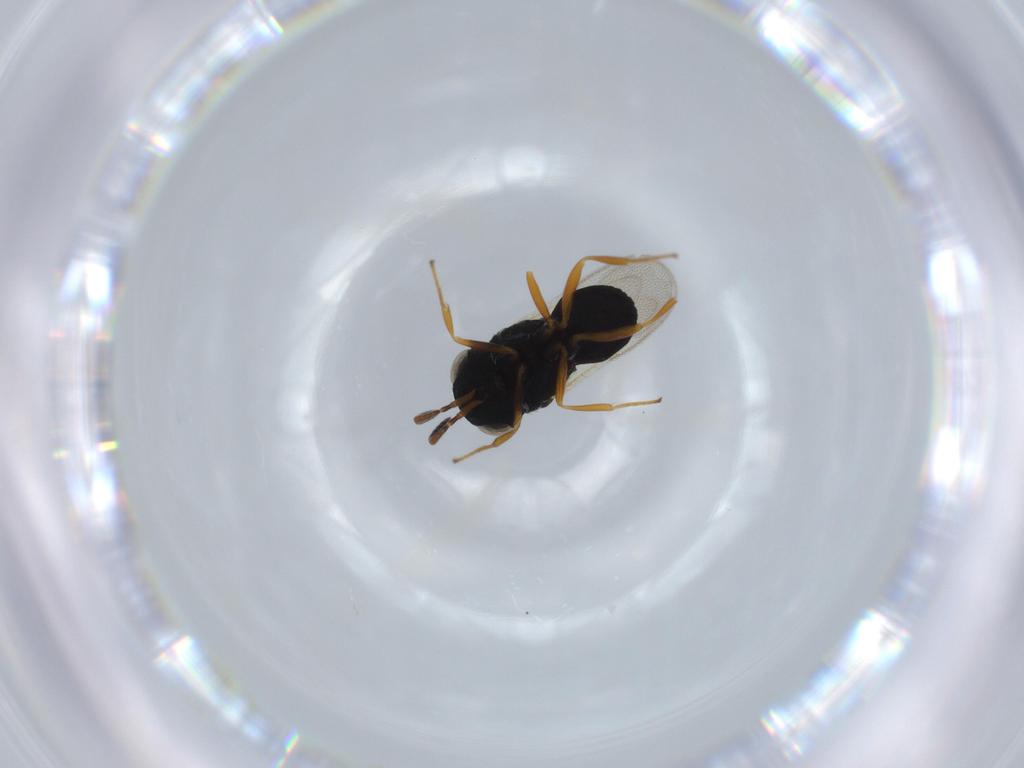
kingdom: Animalia
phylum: Arthropoda
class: Insecta
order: Hymenoptera
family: Scelionidae
